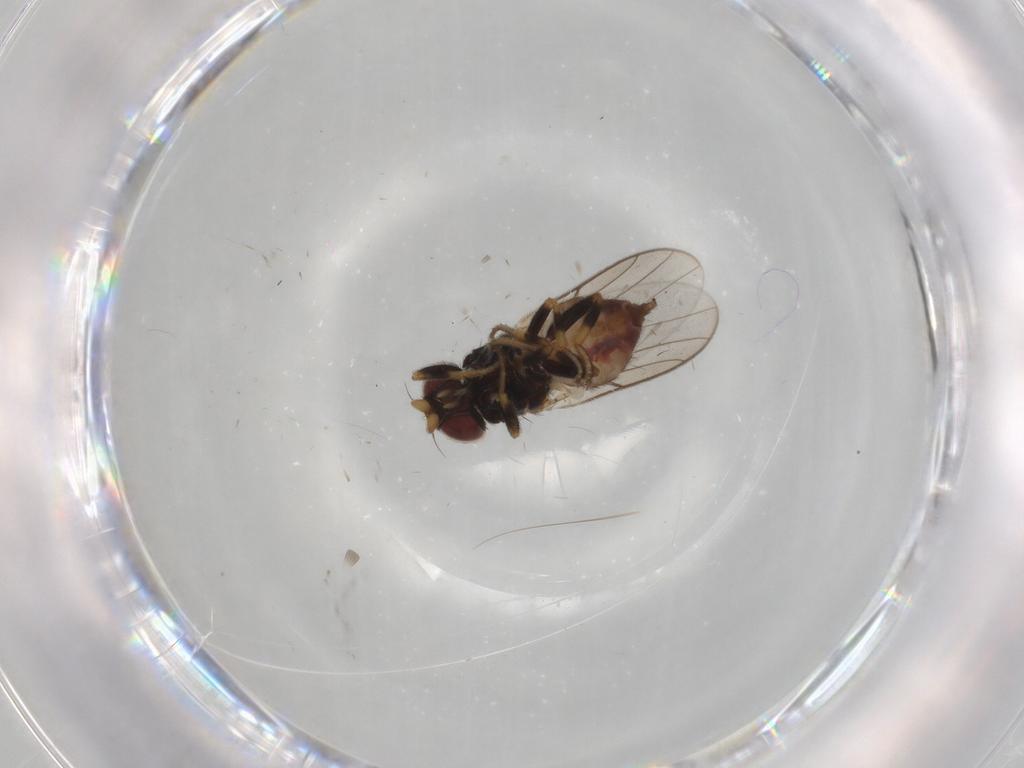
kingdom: Animalia
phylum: Arthropoda
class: Insecta
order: Diptera
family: Chloropidae
